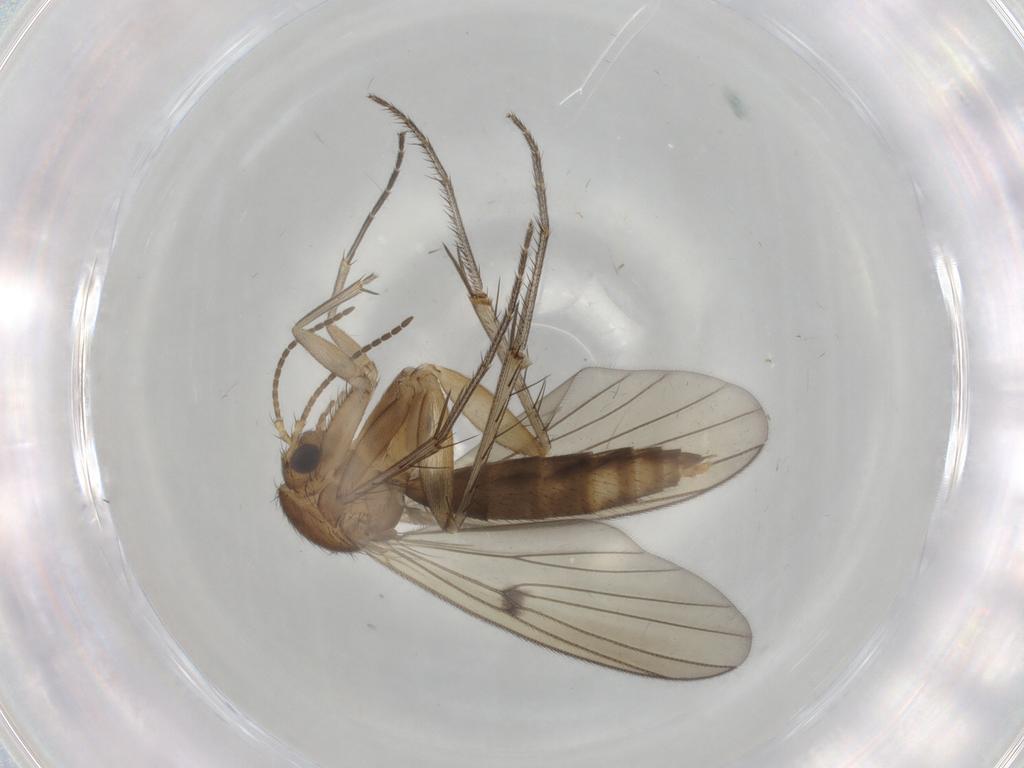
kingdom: Animalia
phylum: Arthropoda
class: Insecta
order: Diptera
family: Mycetophilidae
